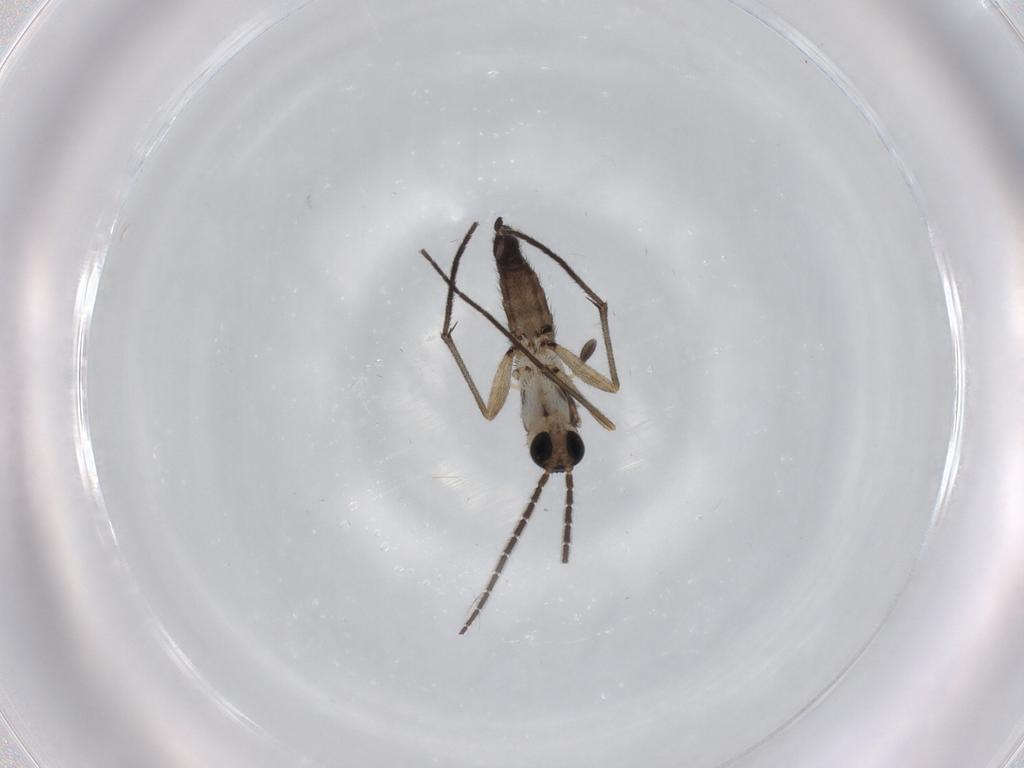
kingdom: Animalia
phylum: Arthropoda
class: Insecta
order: Diptera
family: Sciaridae
